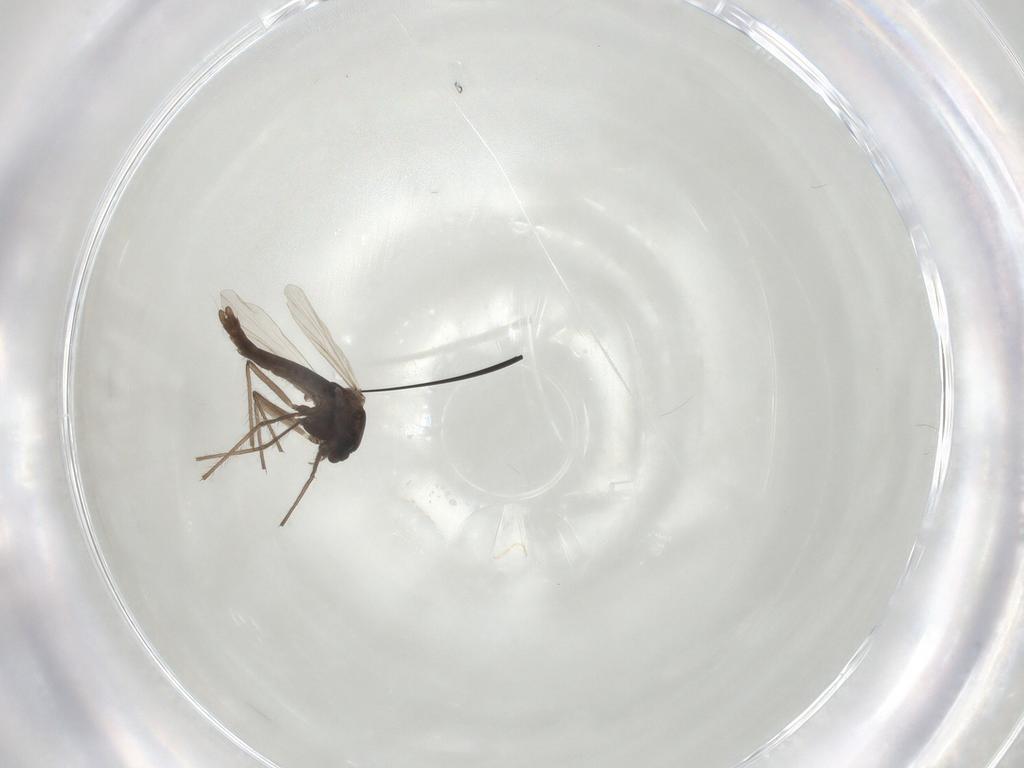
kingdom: Animalia
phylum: Arthropoda
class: Insecta
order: Diptera
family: Chironomidae
